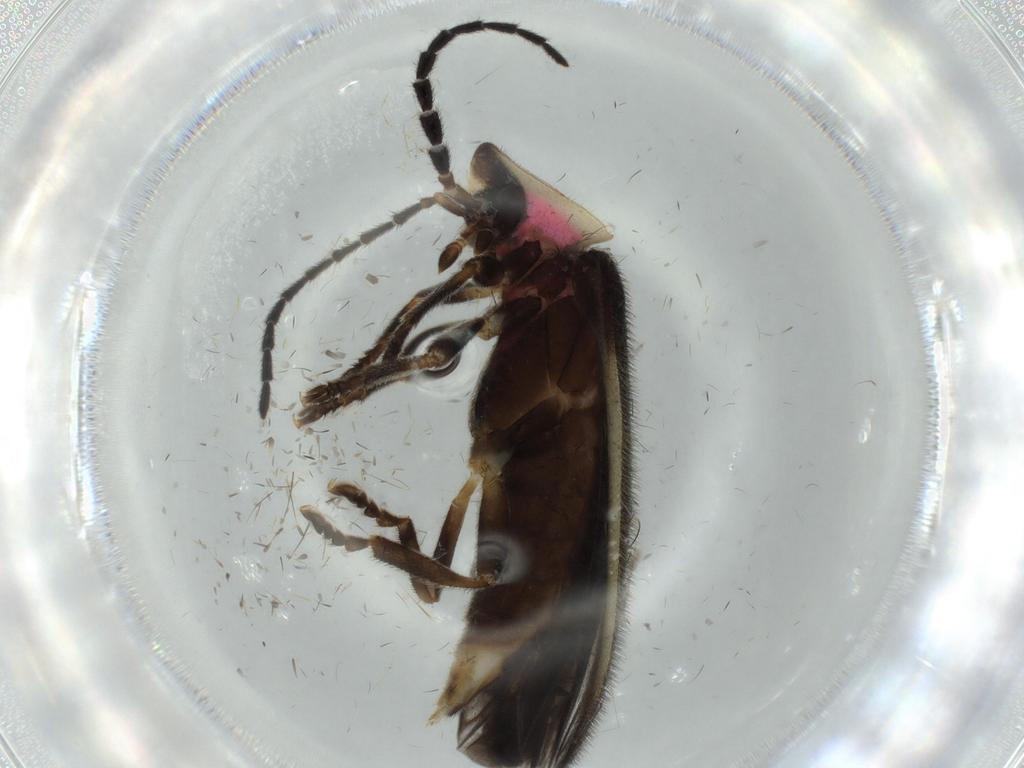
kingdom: Animalia
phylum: Arthropoda
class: Insecta
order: Coleoptera
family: Lampyridae
